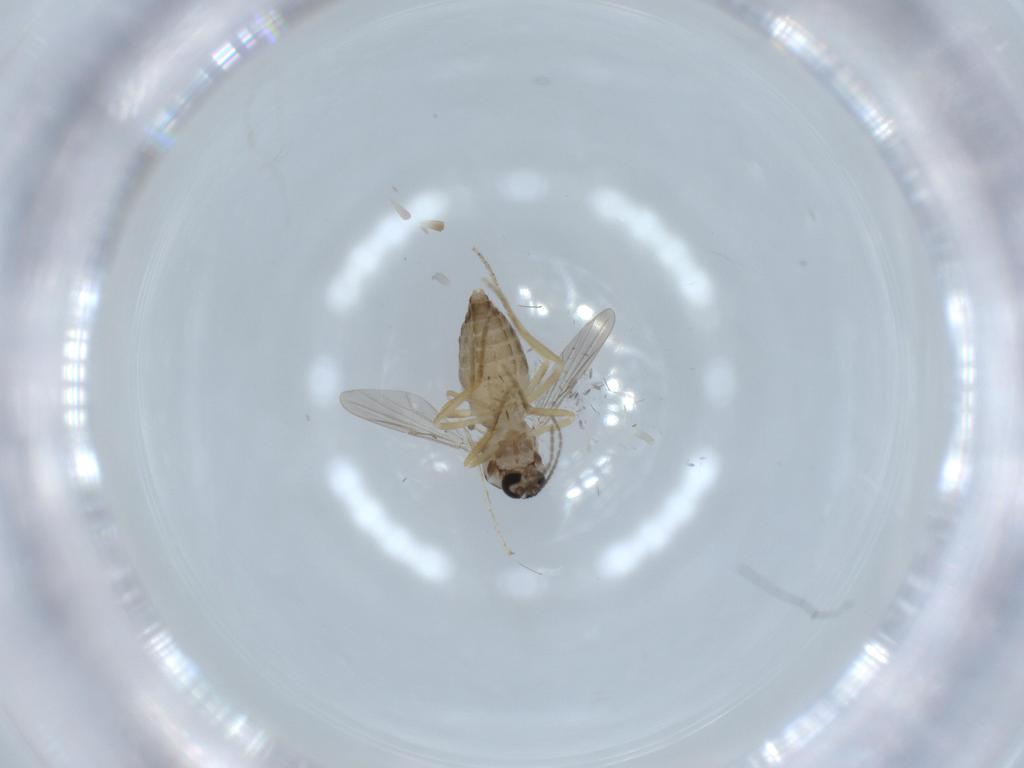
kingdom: Animalia
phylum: Arthropoda
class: Insecta
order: Diptera
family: Ceratopogonidae
